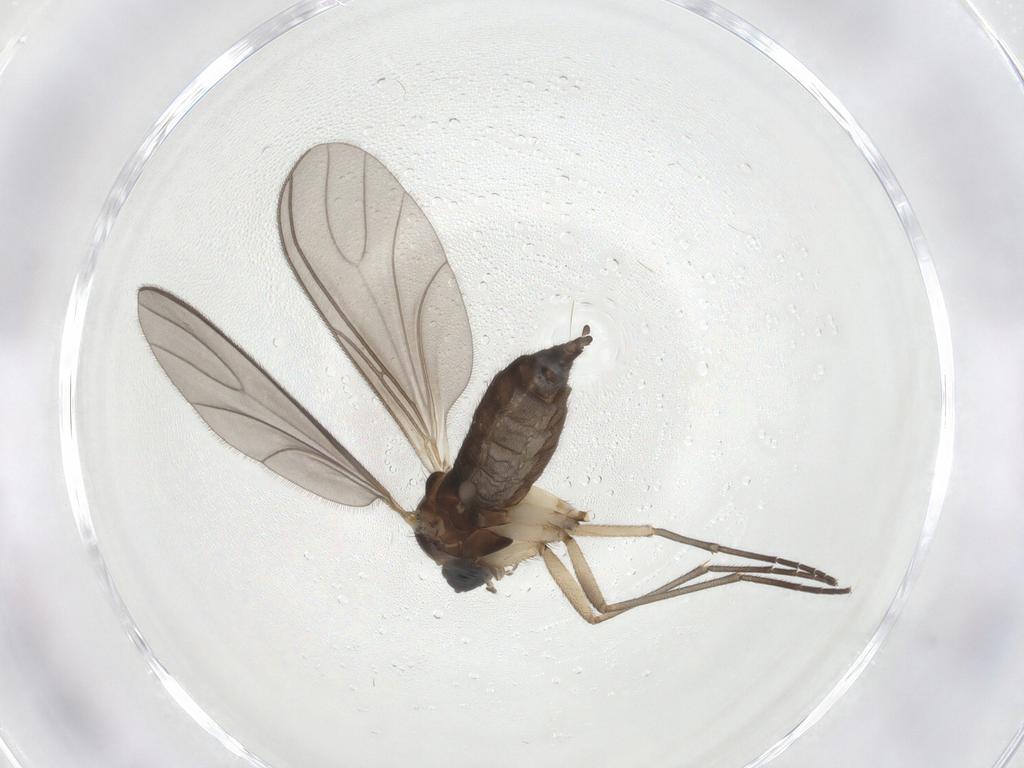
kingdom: Animalia
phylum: Arthropoda
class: Insecta
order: Diptera
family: Sciaridae
